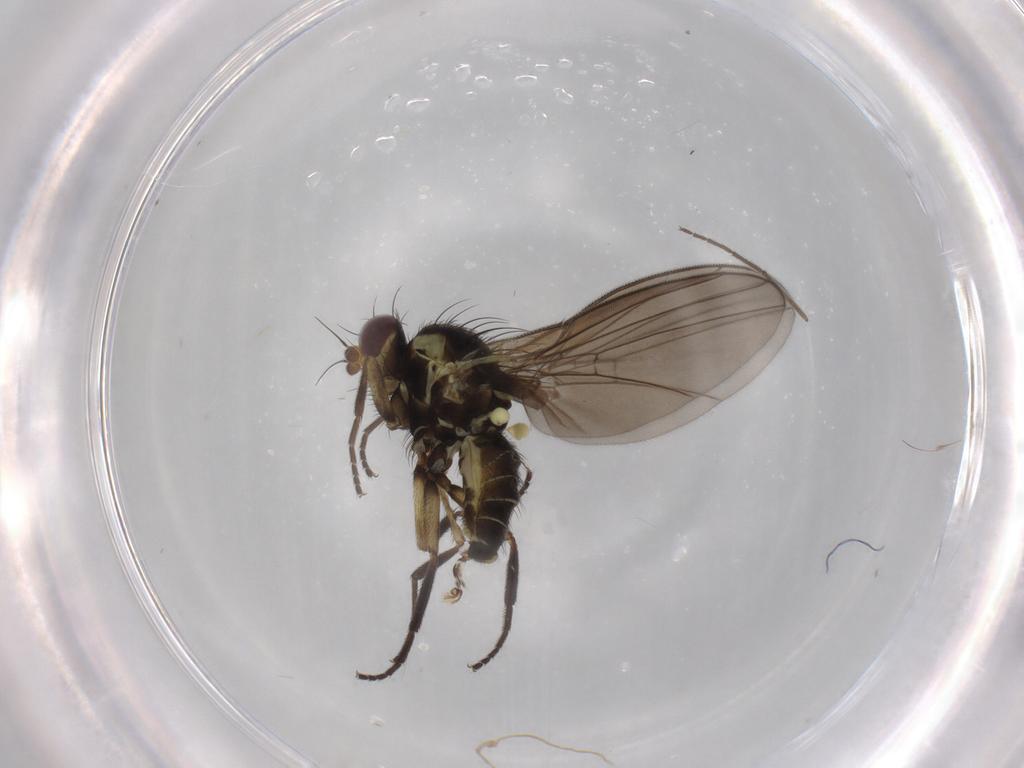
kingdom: Animalia
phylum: Arthropoda
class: Insecta
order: Diptera
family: Agromyzidae
